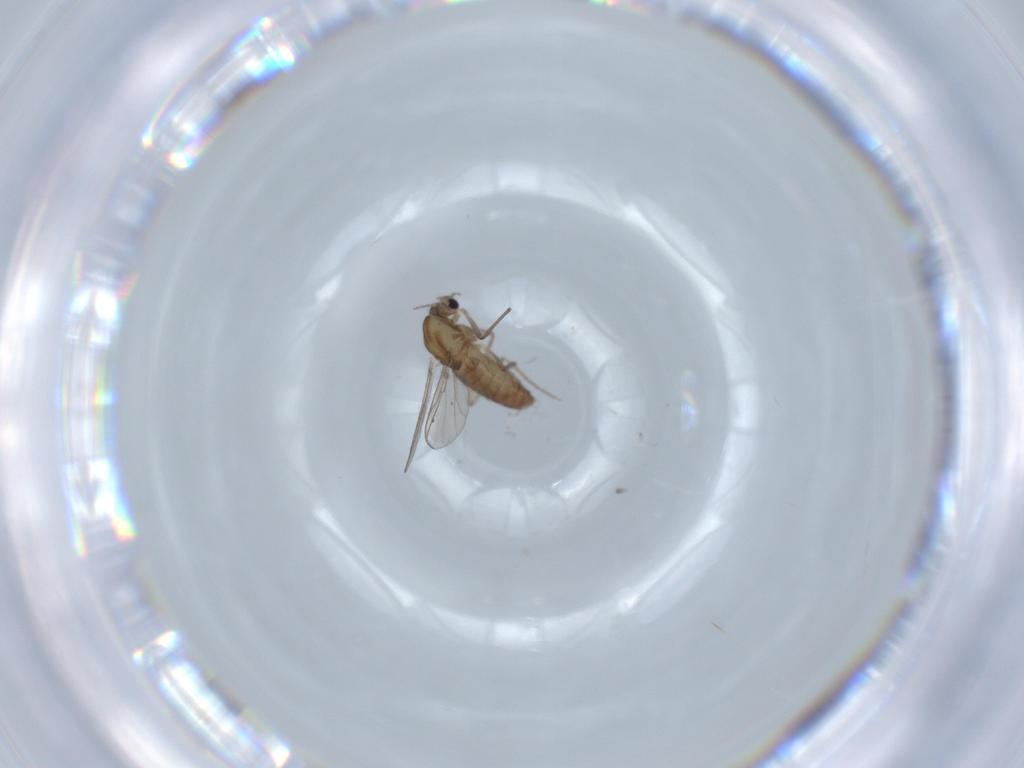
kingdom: Animalia
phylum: Arthropoda
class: Insecta
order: Diptera
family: Chironomidae
